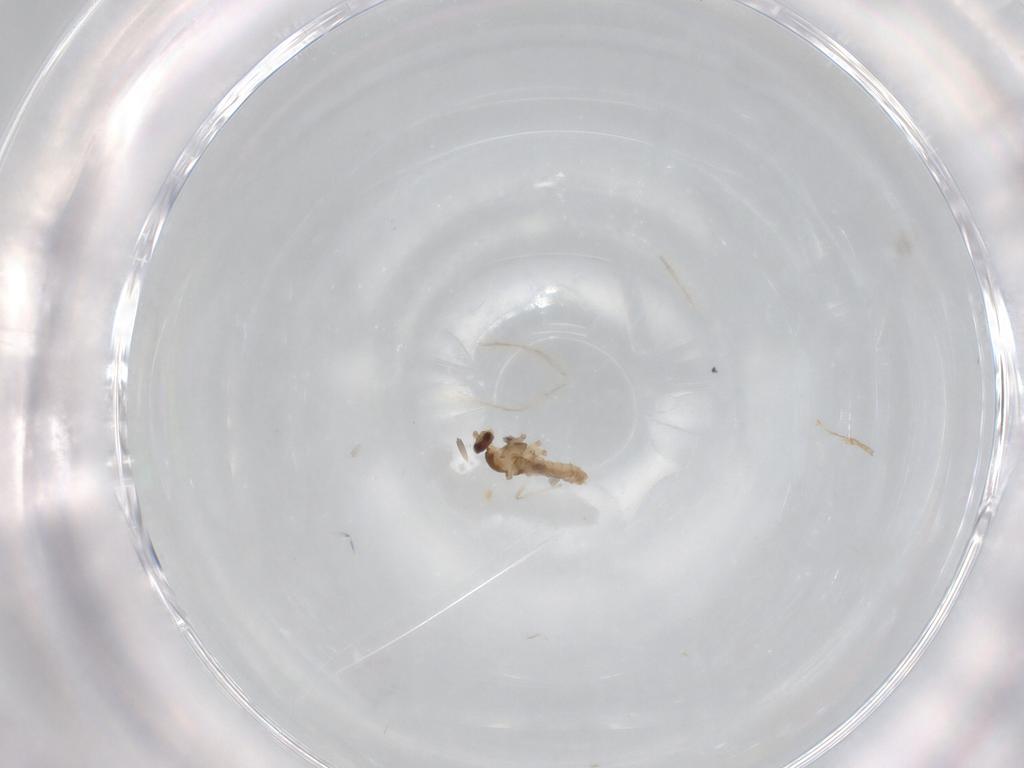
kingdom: Animalia
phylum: Arthropoda
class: Insecta
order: Diptera
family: Cecidomyiidae
